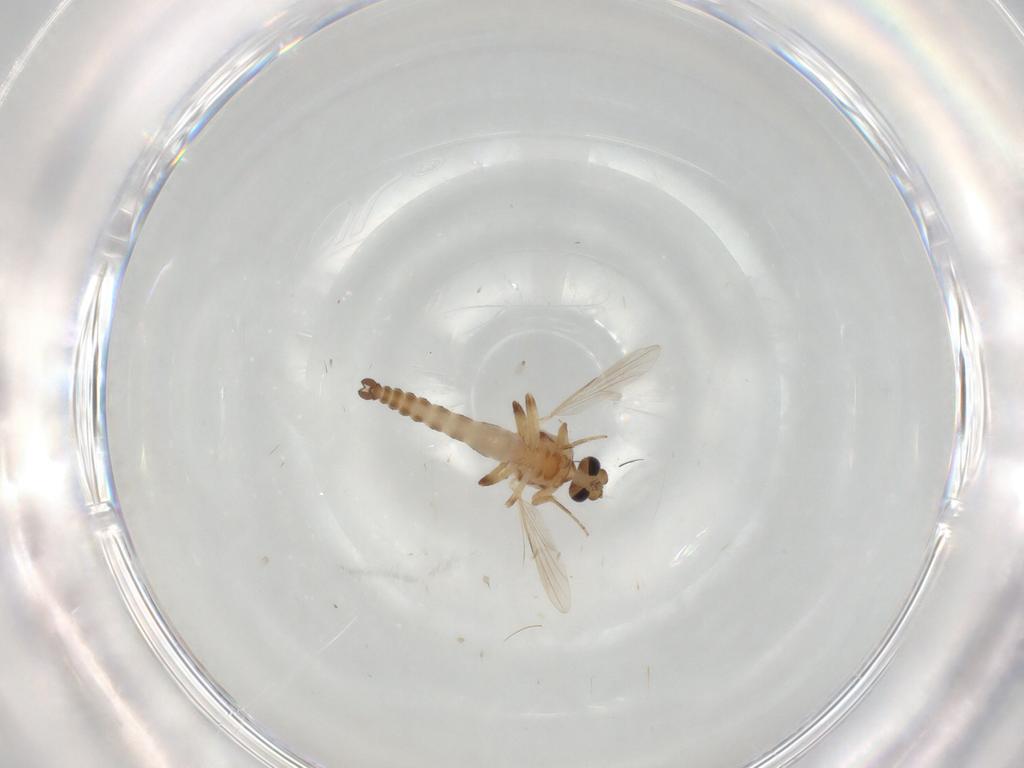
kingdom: Animalia
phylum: Arthropoda
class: Insecta
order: Diptera
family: Cecidomyiidae
